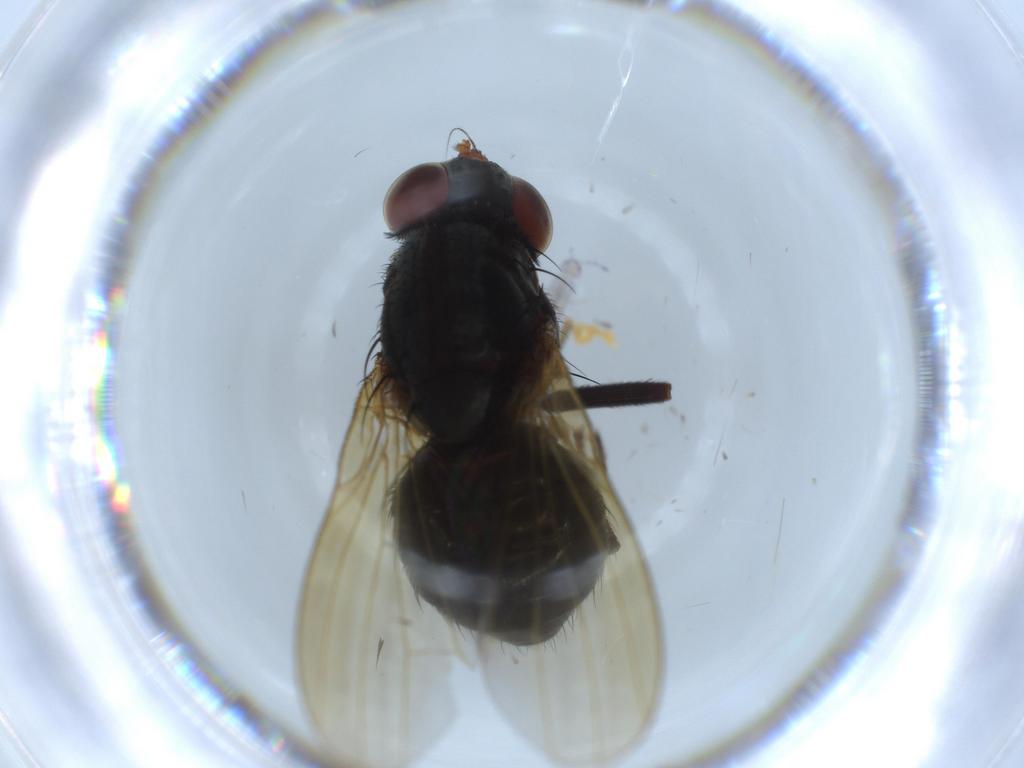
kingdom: Animalia
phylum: Arthropoda
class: Insecta
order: Diptera
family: Lauxaniidae
